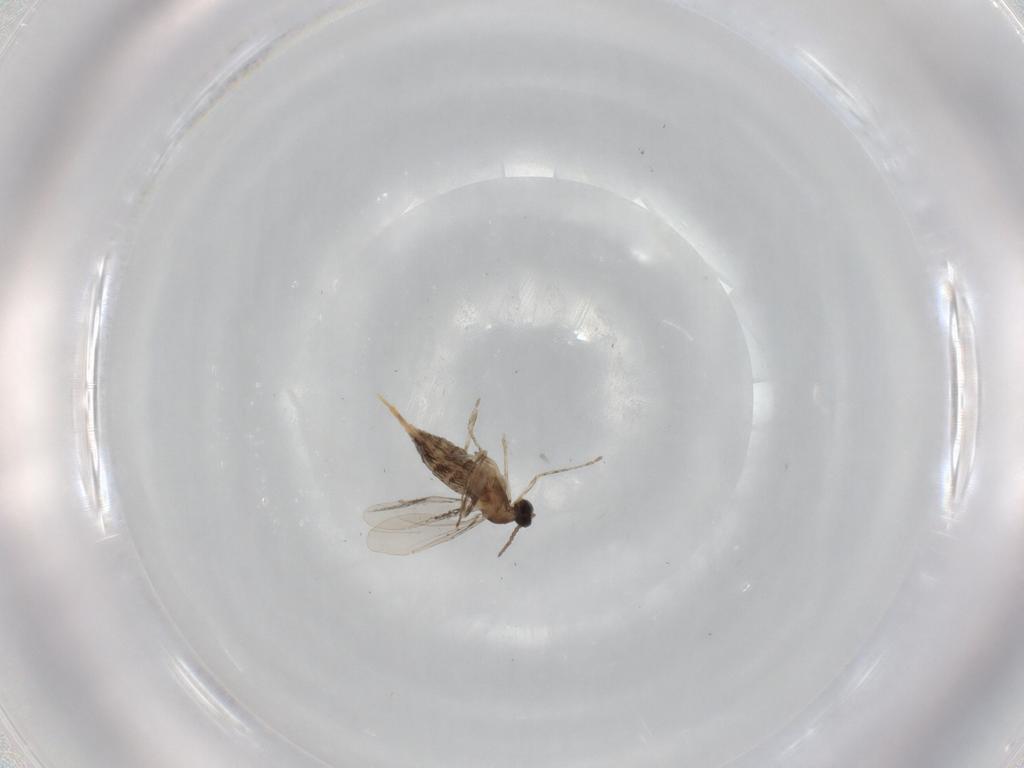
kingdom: Animalia
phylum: Arthropoda
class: Insecta
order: Diptera
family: Cecidomyiidae
